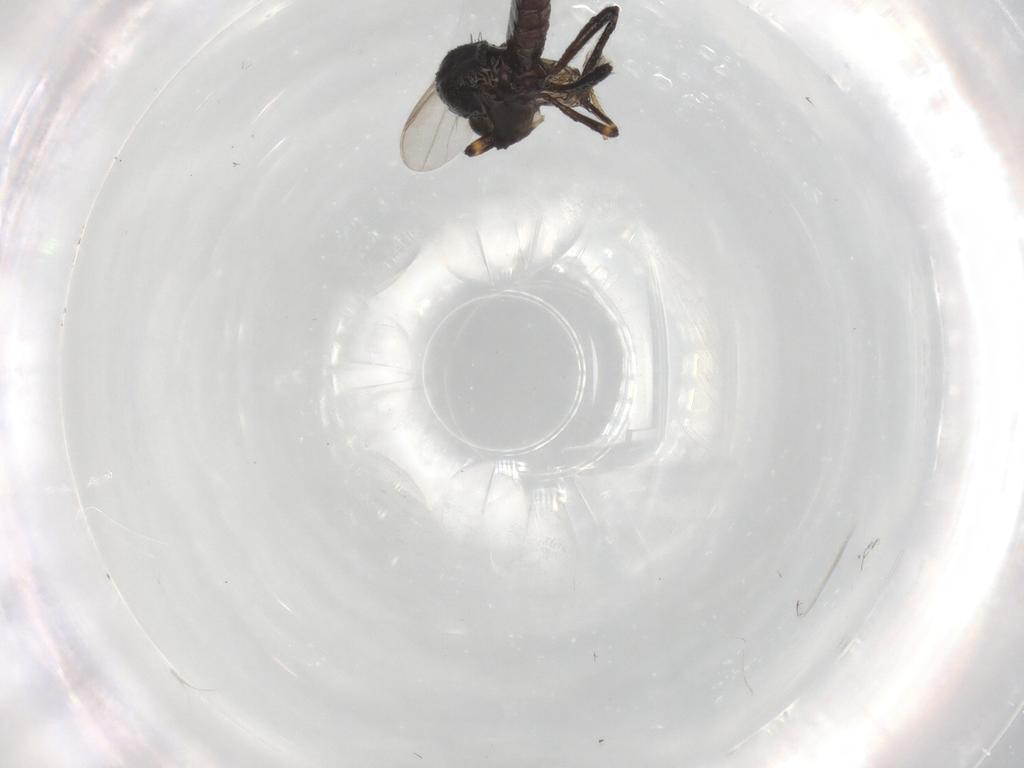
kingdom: Animalia
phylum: Arthropoda
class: Insecta
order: Diptera
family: Ceratopogonidae
